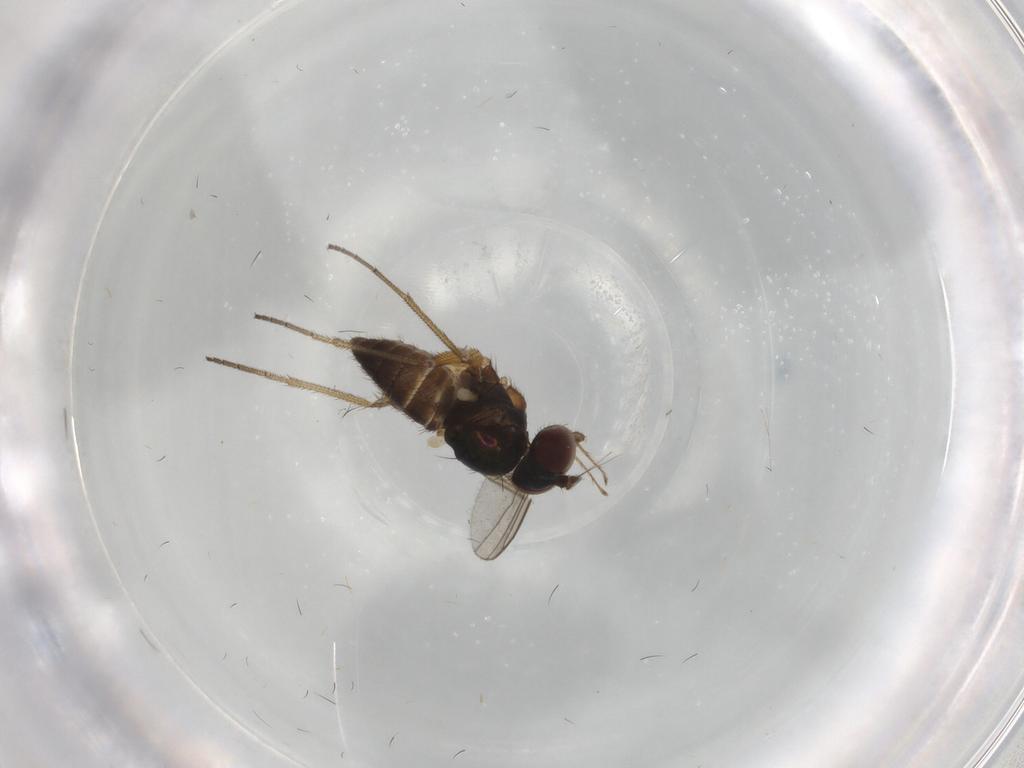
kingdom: Animalia
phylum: Arthropoda
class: Insecta
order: Diptera
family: Dolichopodidae
